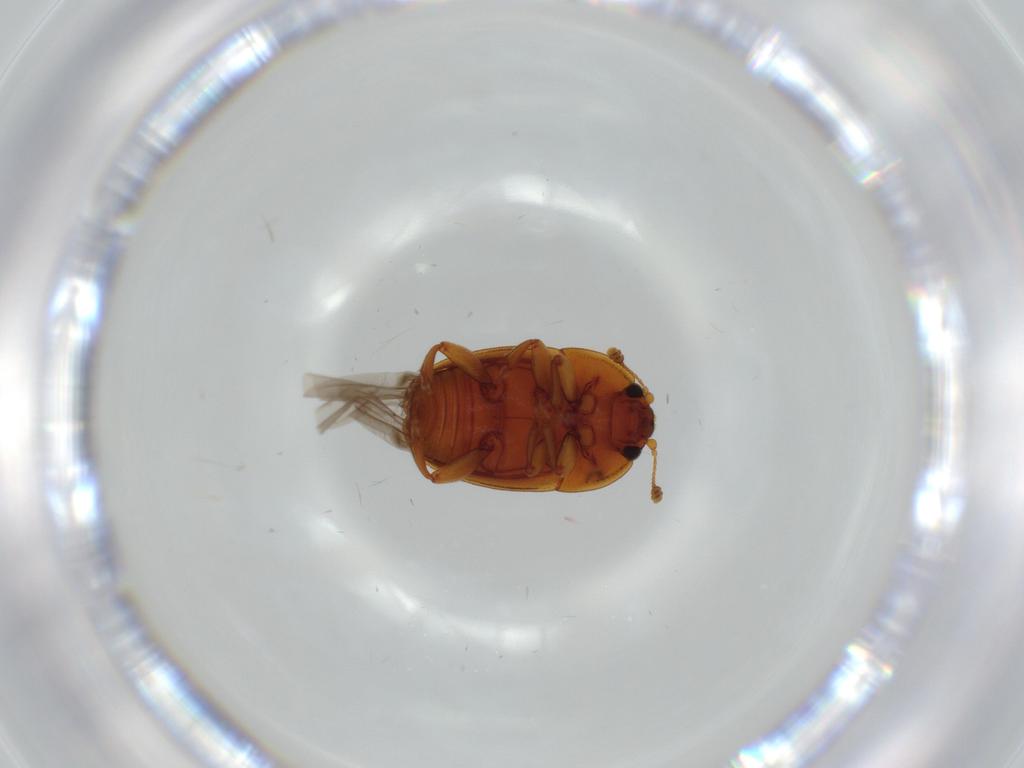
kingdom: Animalia
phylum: Arthropoda
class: Insecta
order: Coleoptera
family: Nitidulidae
